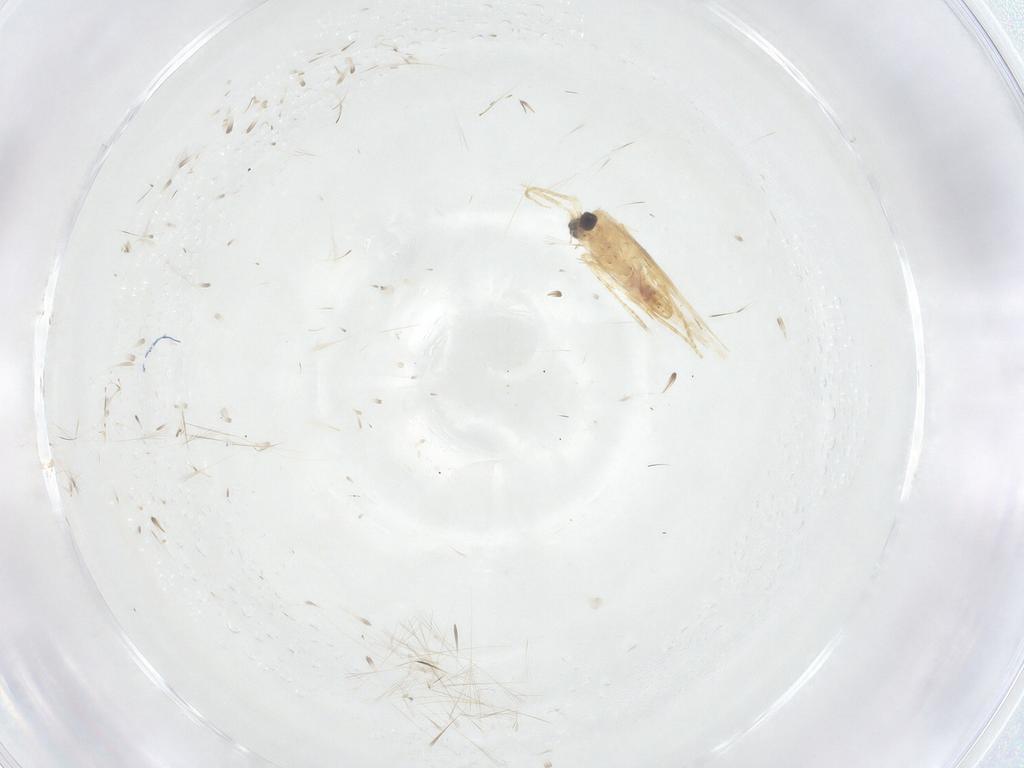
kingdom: Animalia
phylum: Arthropoda
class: Insecta
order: Lepidoptera
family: Nepticulidae
